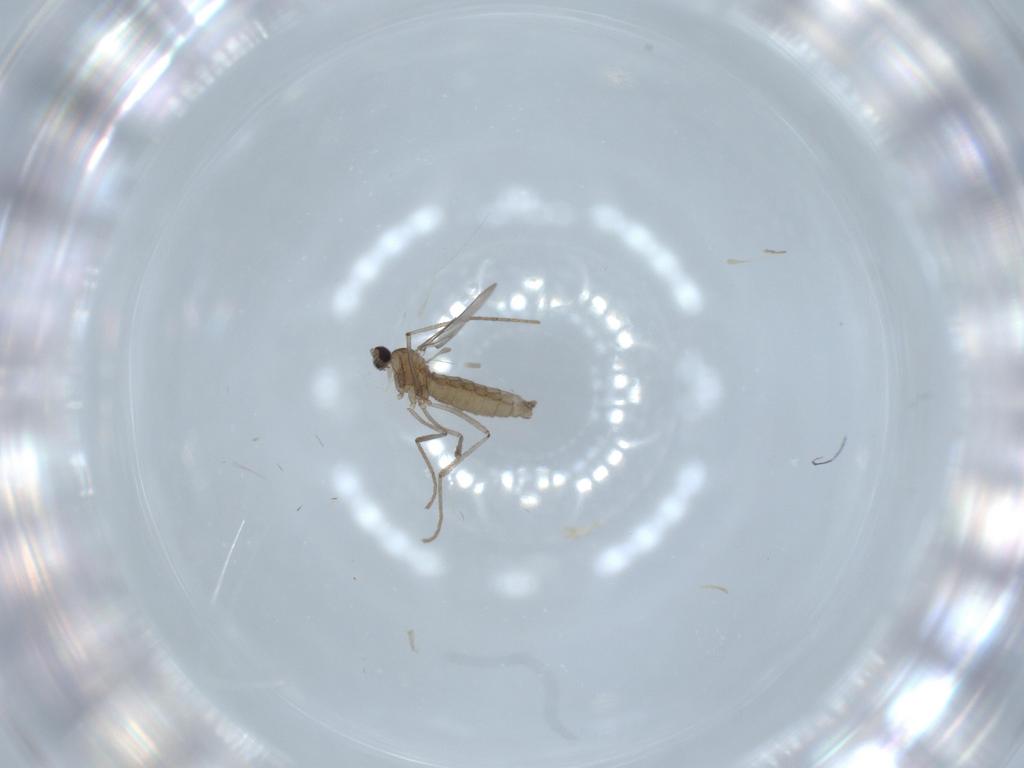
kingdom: Animalia
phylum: Arthropoda
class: Insecta
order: Diptera
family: Cecidomyiidae
